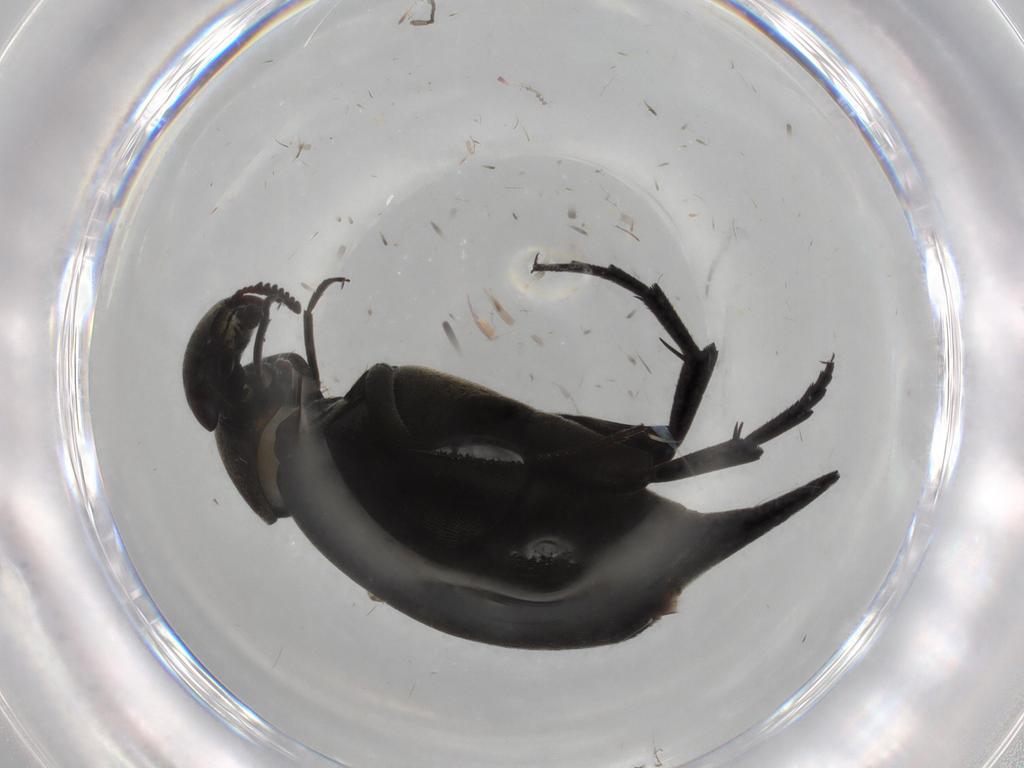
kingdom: Animalia
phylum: Arthropoda
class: Insecta
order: Coleoptera
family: Mordellidae
